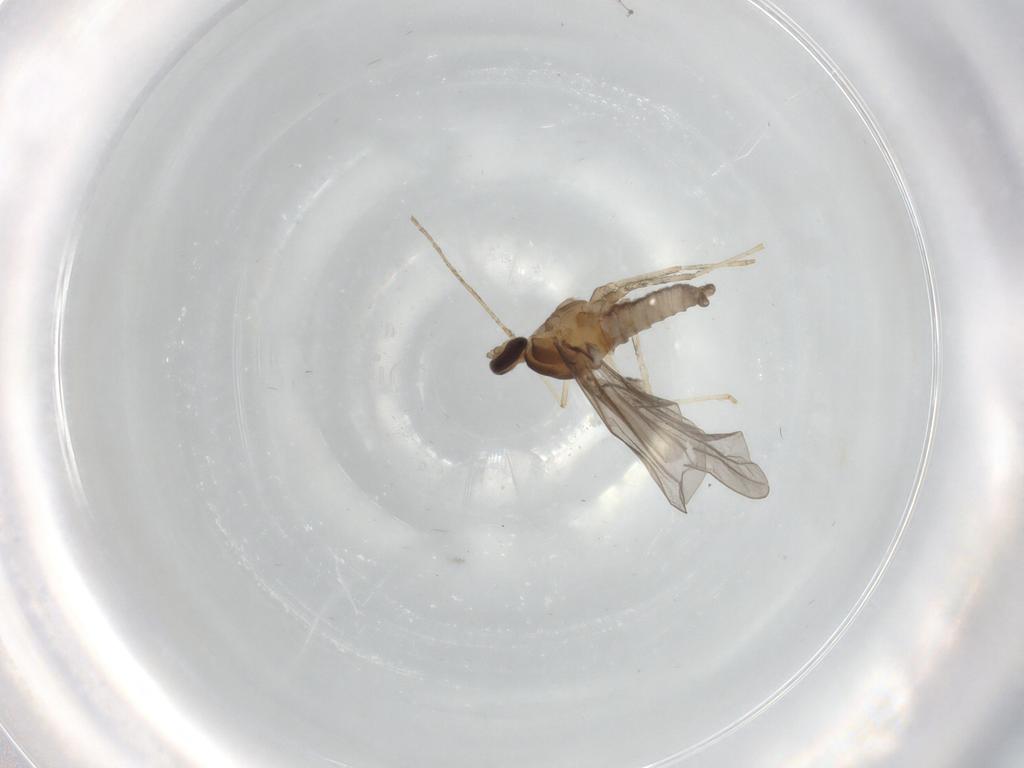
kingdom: Animalia
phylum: Arthropoda
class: Insecta
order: Diptera
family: Cecidomyiidae
